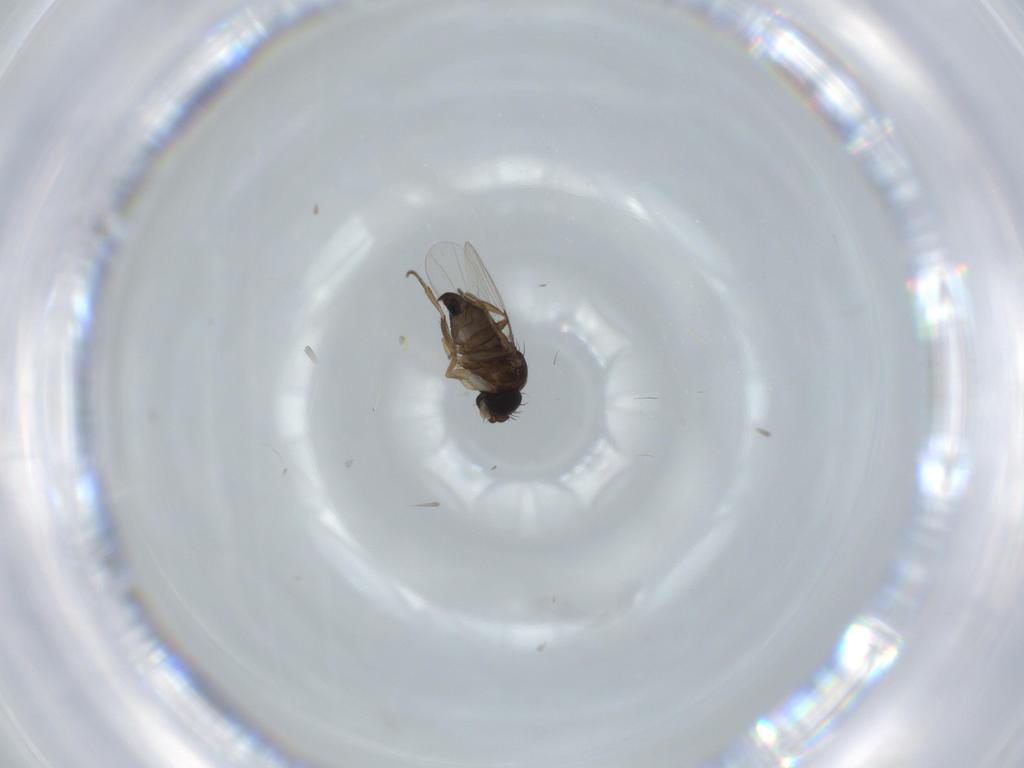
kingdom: Animalia
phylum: Arthropoda
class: Insecta
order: Diptera
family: Phoridae
